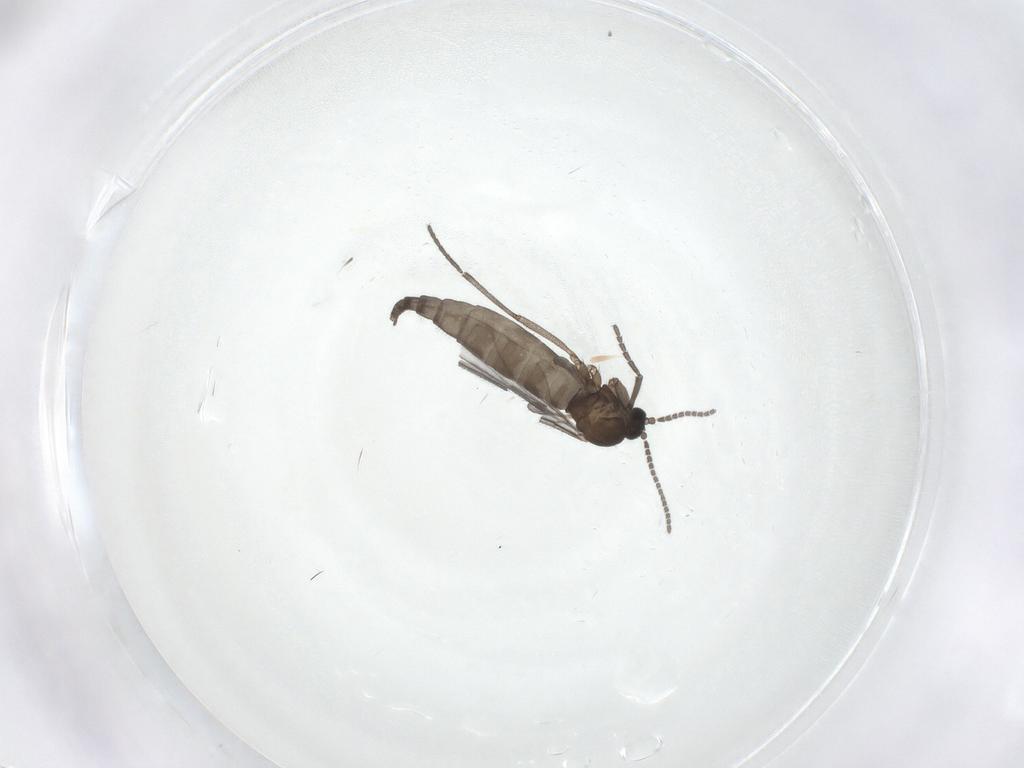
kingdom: Animalia
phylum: Arthropoda
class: Insecta
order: Diptera
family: Sciaridae
